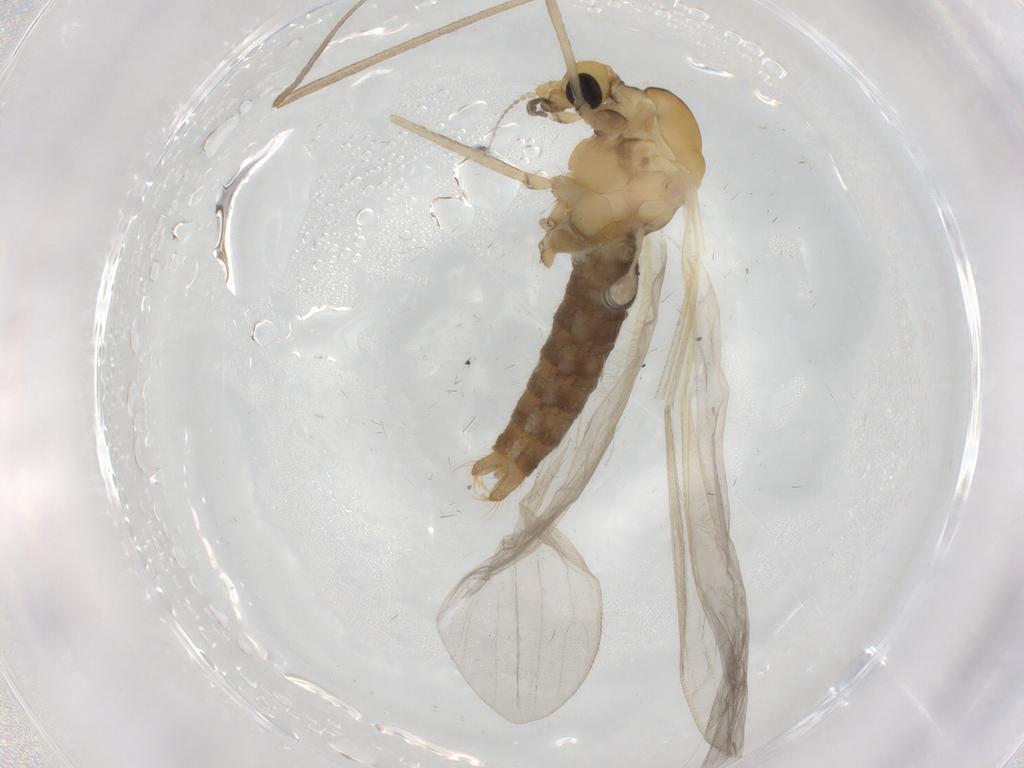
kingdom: Animalia
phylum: Arthropoda
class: Insecta
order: Diptera
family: Limoniidae
